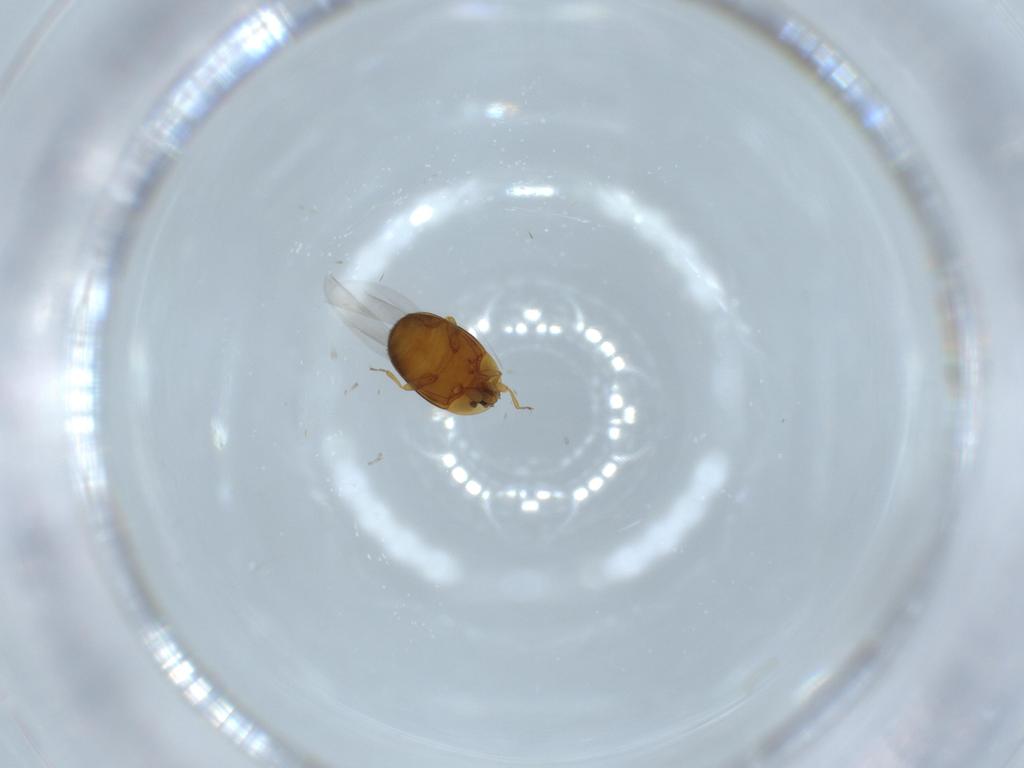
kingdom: Animalia
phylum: Arthropoda
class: Insecta
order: Coleoptera
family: Corylophidae
